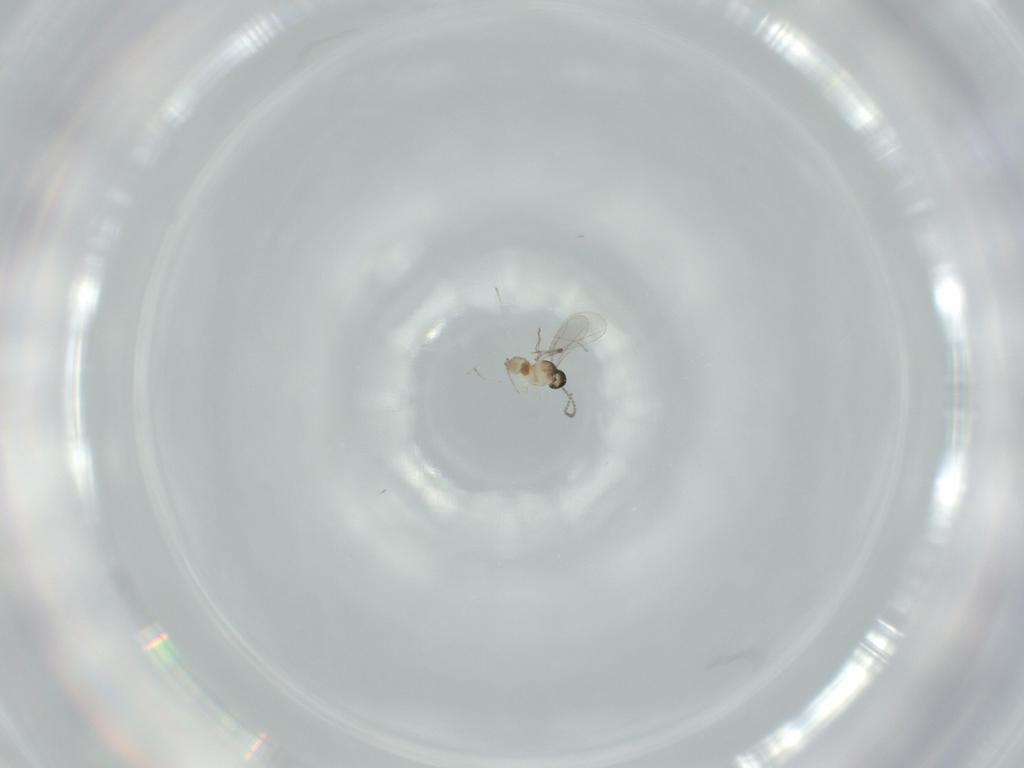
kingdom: Animalia
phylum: Arthropoda
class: Insecta
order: Diptera
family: Cecidomyiidae
